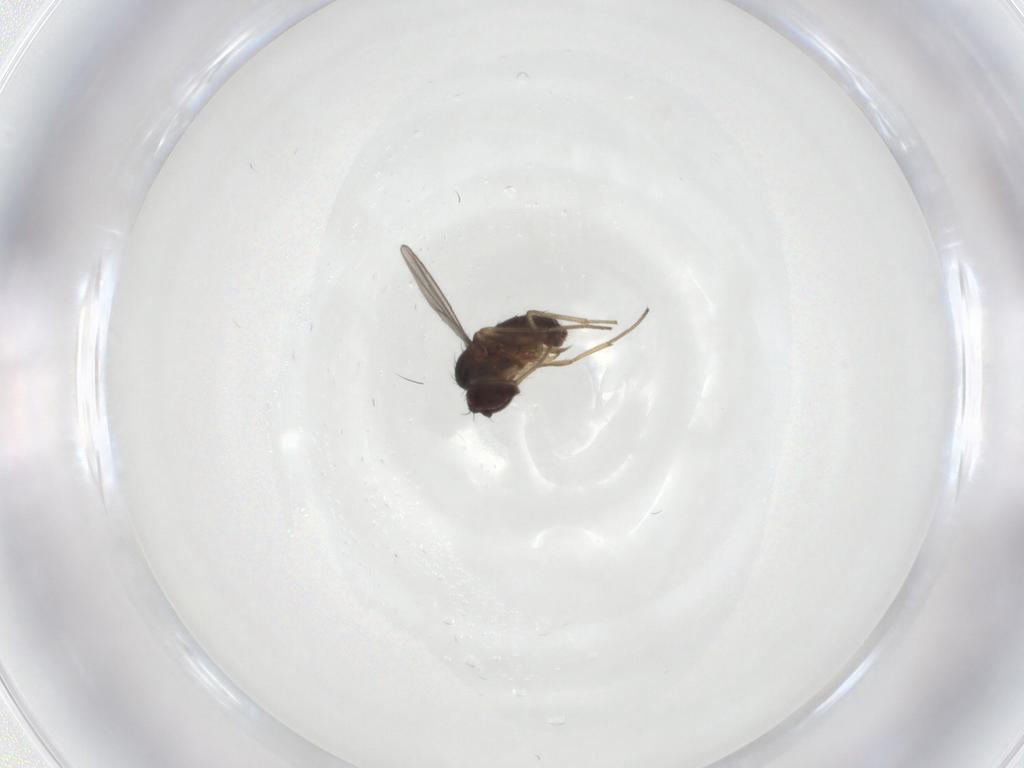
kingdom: Animalia
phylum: Arthropoda
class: Insecta
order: Diptera
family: Dolichopodidae
